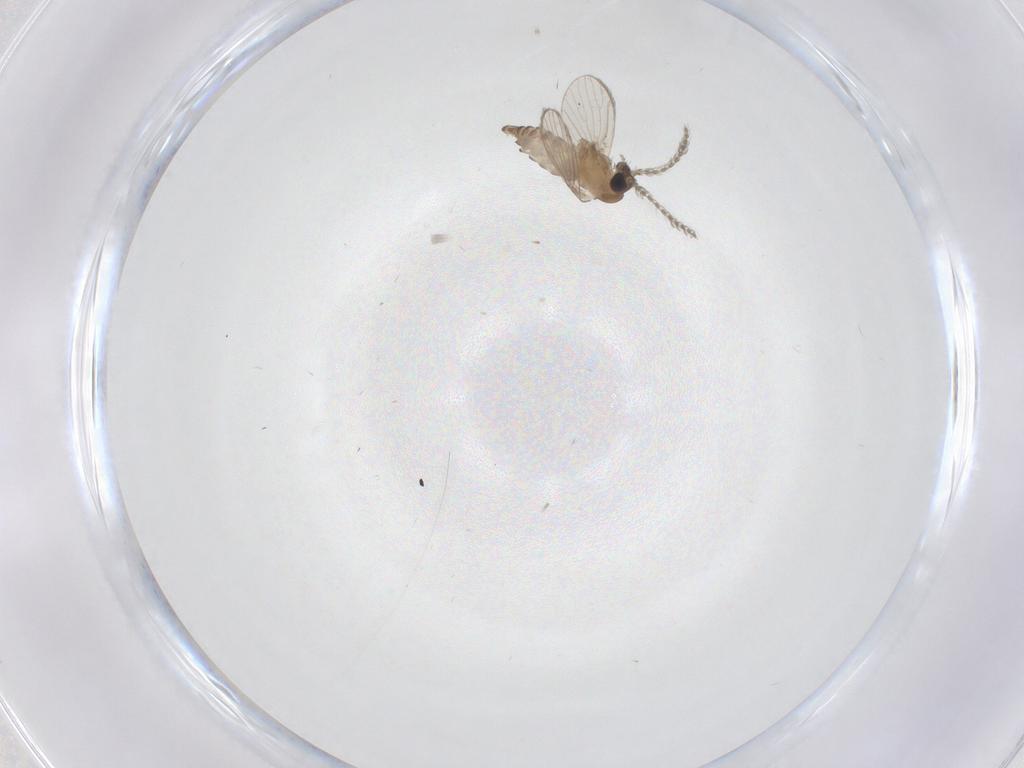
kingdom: Animalia
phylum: Arthropoda
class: Insecta
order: Diptera
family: Psychodidae
